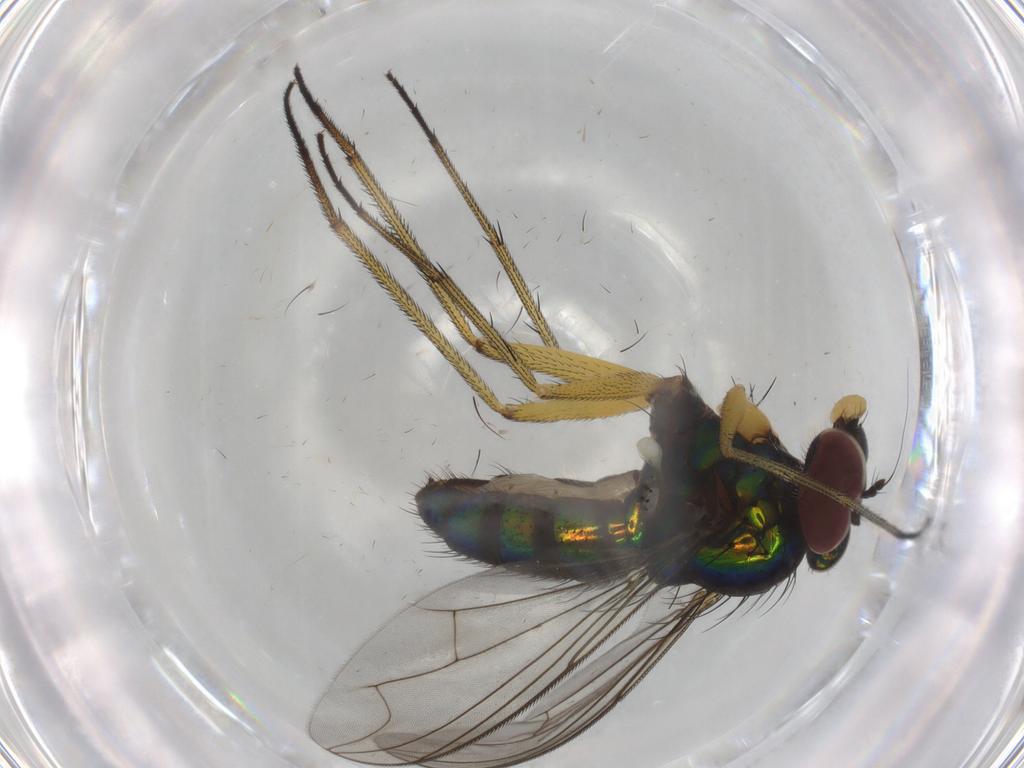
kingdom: Animalia
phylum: Arthropoda
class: Insecta
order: Diptera
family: Dolichopodidae
